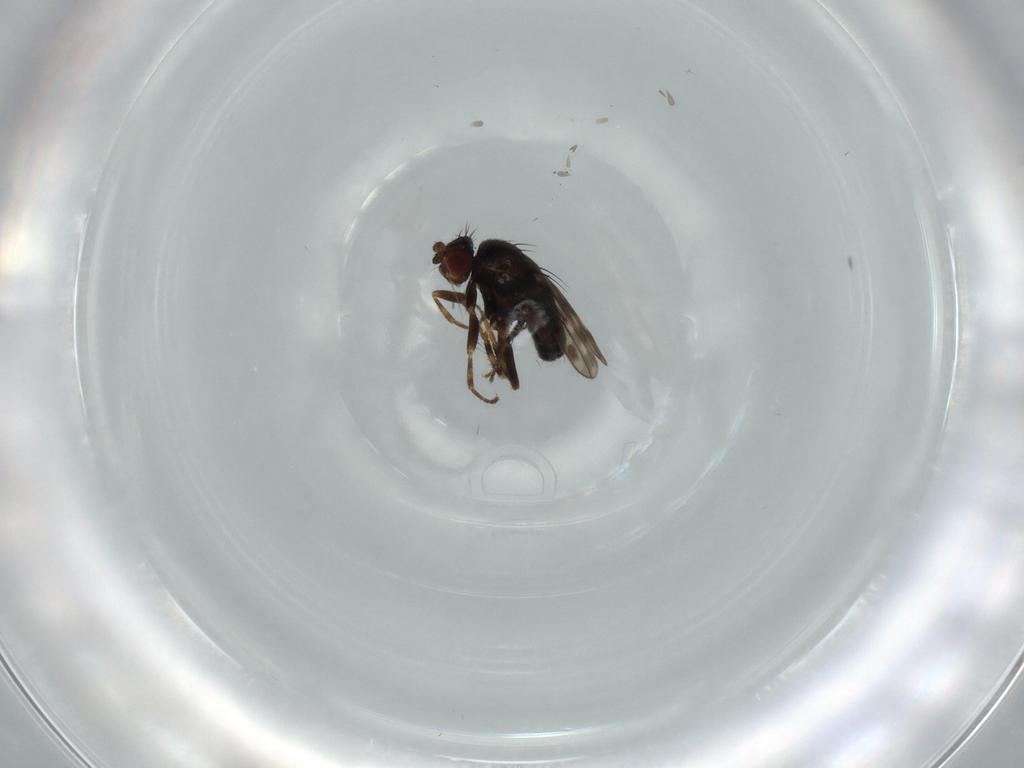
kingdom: Animalia
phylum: Arthropoda
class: Insecta
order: Diptera
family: Sphaeroceridae
